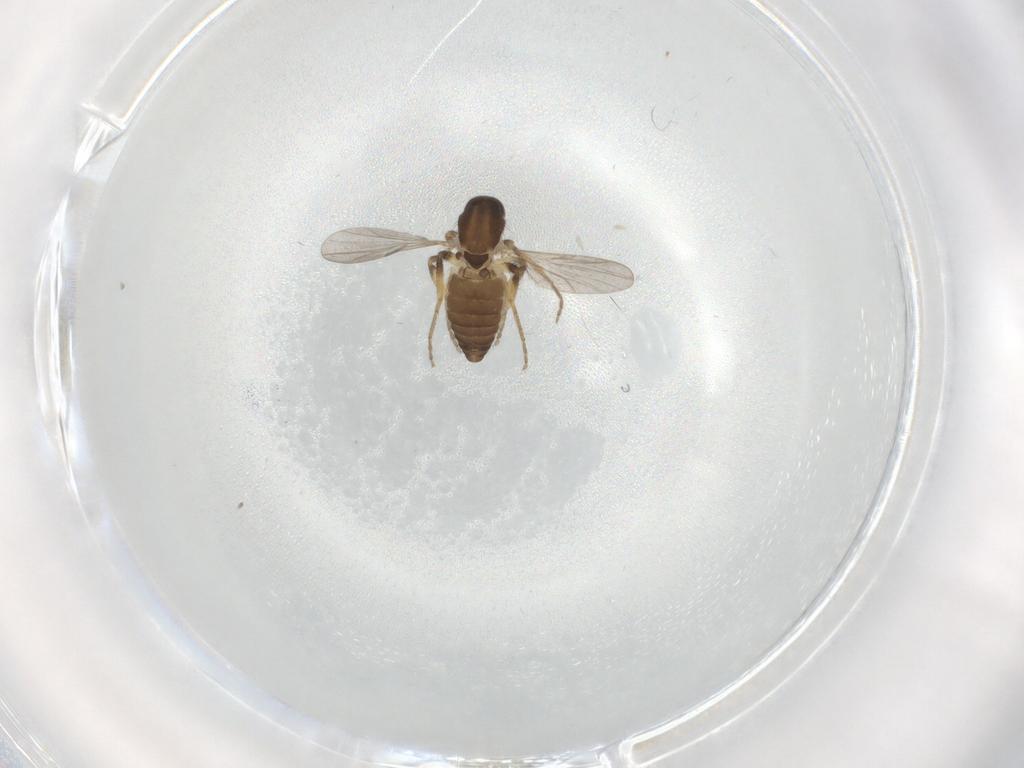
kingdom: Animalia
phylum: Arthropoda
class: Insecta
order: Diptera
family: Ceratopogonidae
